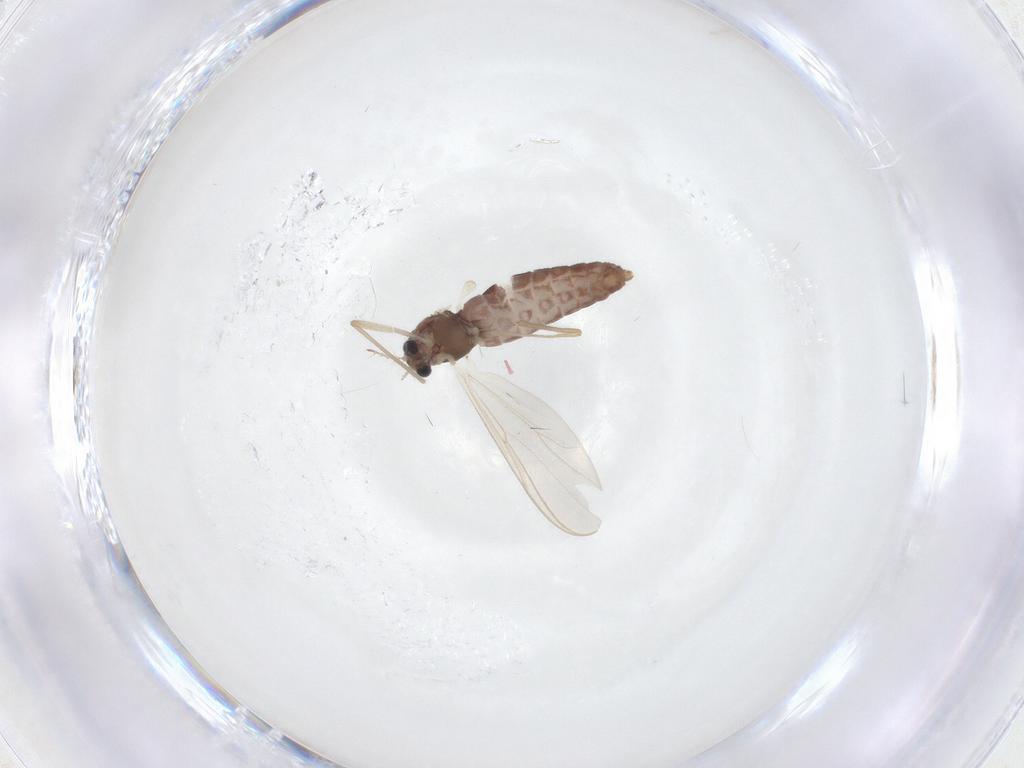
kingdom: Animalia
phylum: Arthropoda
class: Insecta
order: Diptera
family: Chironomidae
